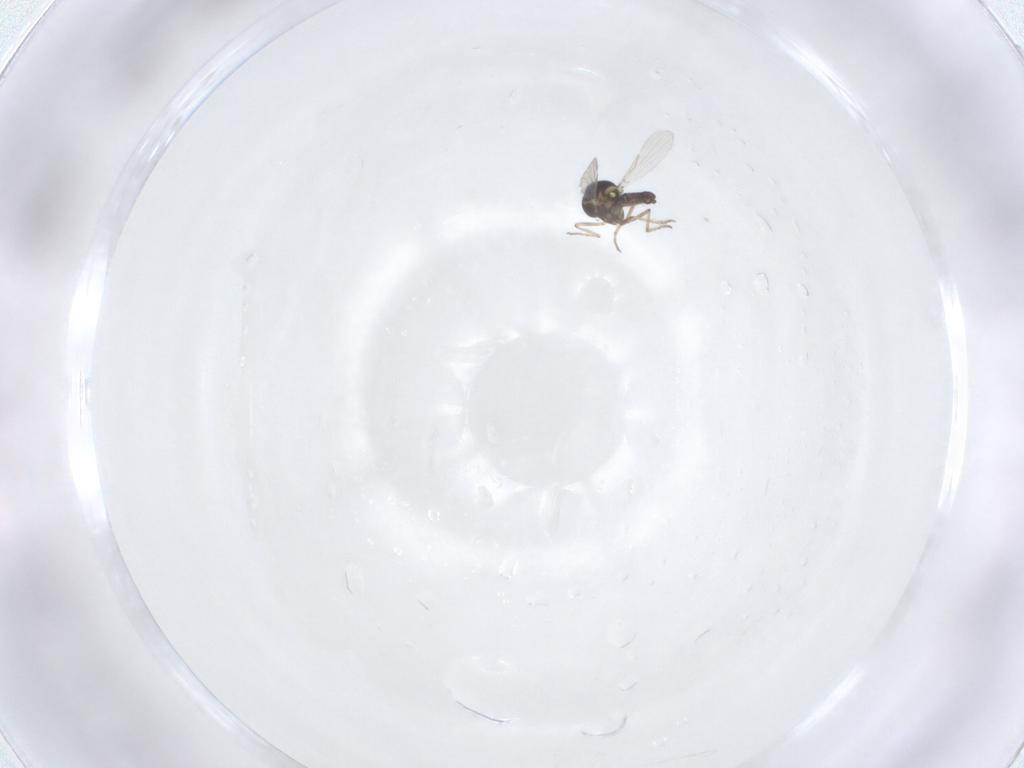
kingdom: Animalia
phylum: Arthropoda
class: Insecta
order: Diptera
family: Ceratopogonidae
